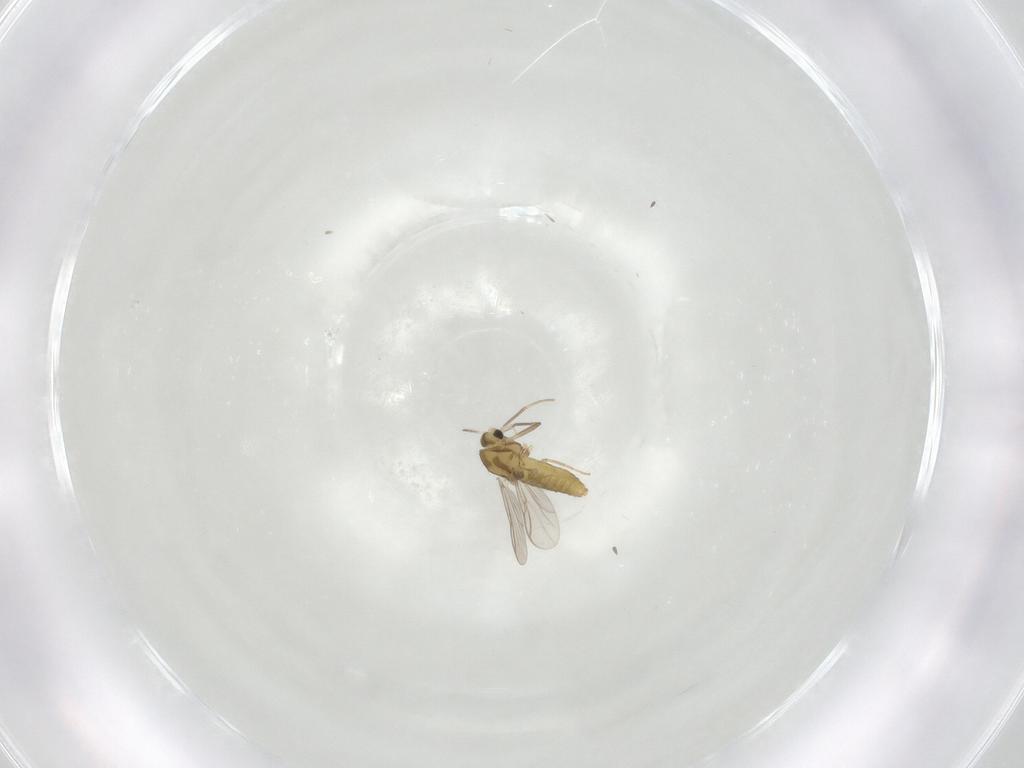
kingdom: Animalia
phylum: Arthropoda
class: Insecta
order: Diptera
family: Chironomidae
